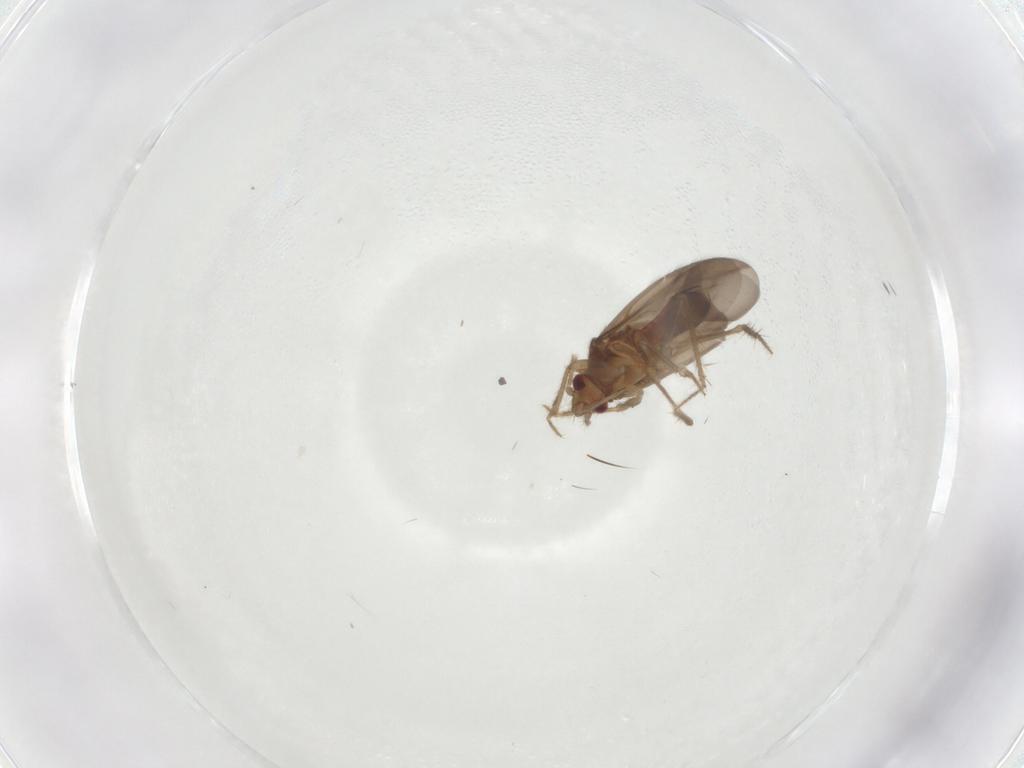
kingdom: Animalia
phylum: Arthropoda
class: Insecta
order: Hemiptera
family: Ceratocombidae
